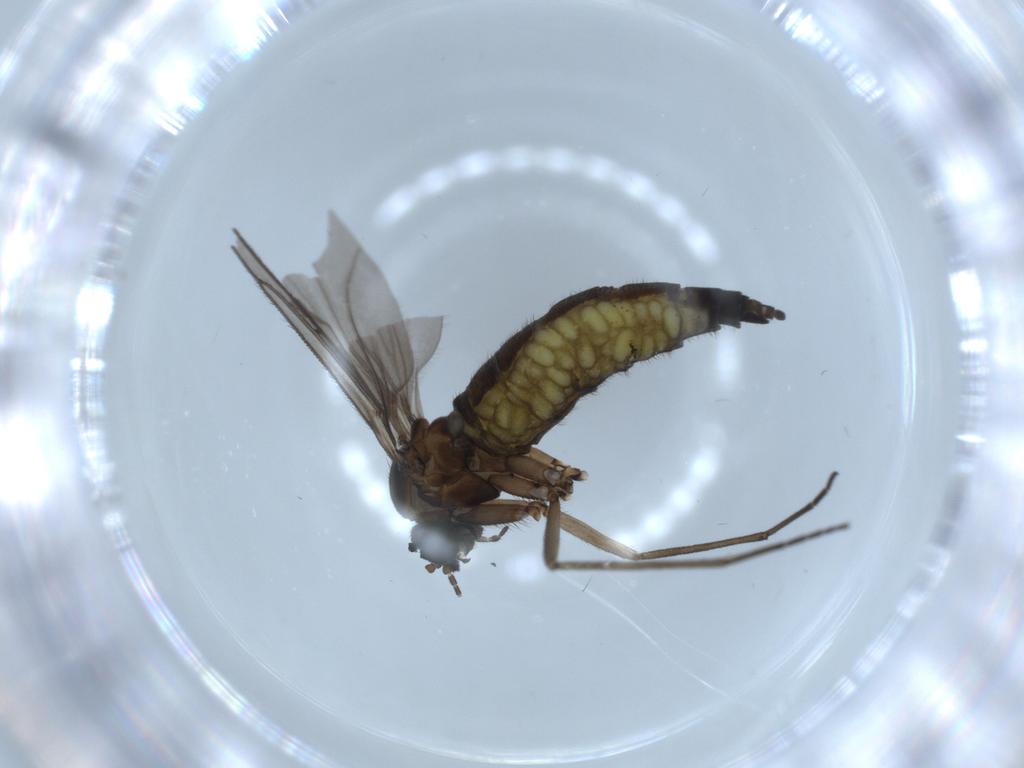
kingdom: Animalia
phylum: Arthropoda
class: Insecta
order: Diptera
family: Sciaridae
